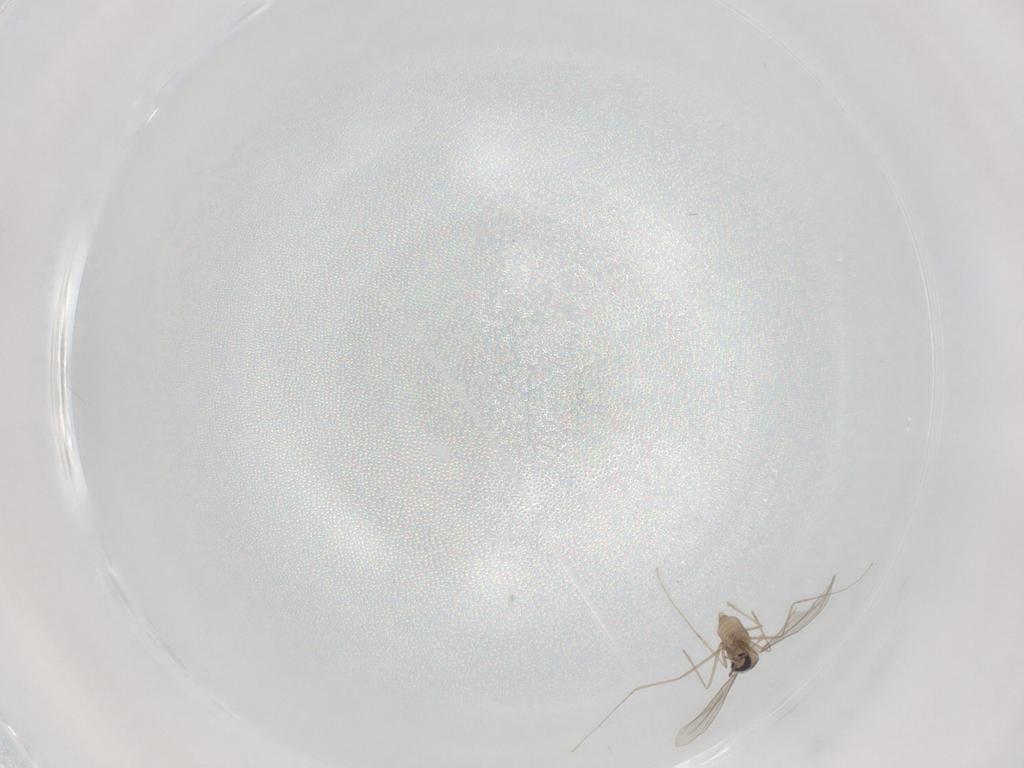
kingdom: Animalia
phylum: Arthropoda
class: Insecta
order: Diptera
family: Cecidomyiidae
